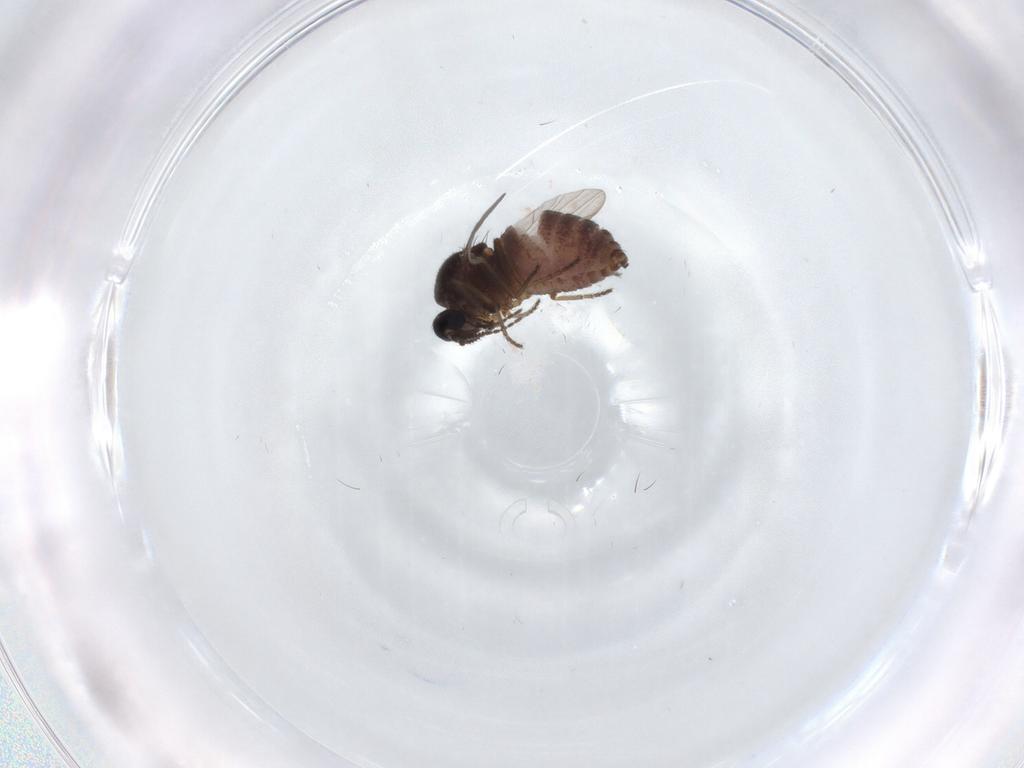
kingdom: Animalia
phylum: Arthropoda
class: Insecta
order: Diptera
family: Ceratopogonidae
